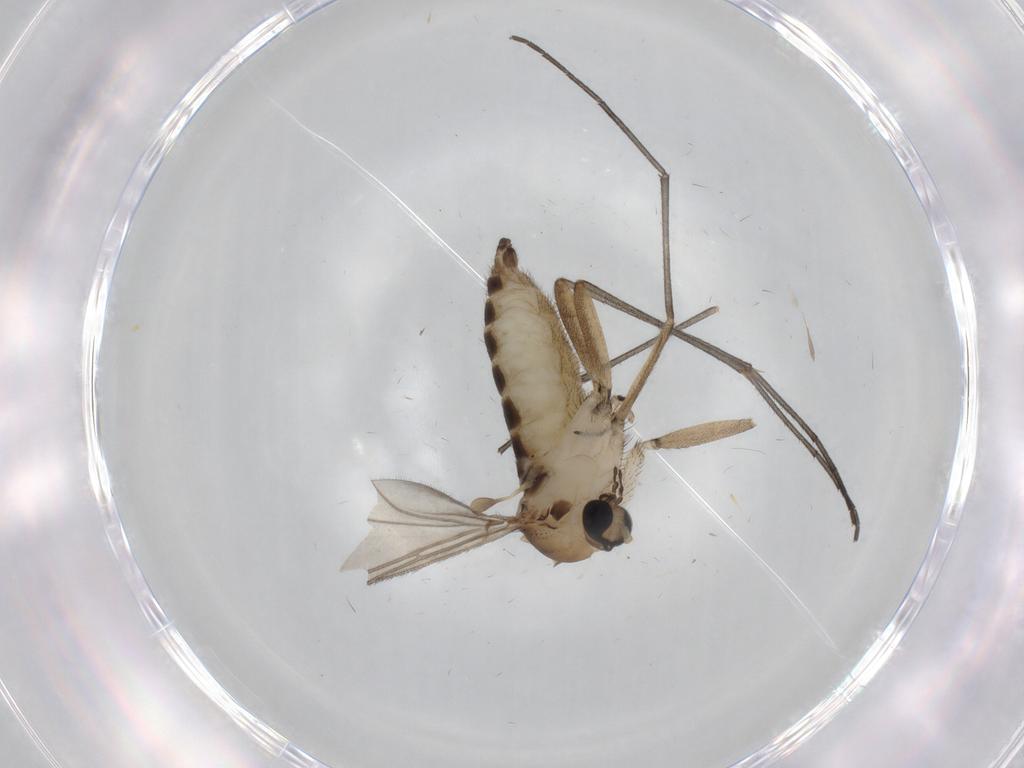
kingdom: Animalia
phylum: Arthropoda
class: Insecta
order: Diptera
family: Sciaridae
